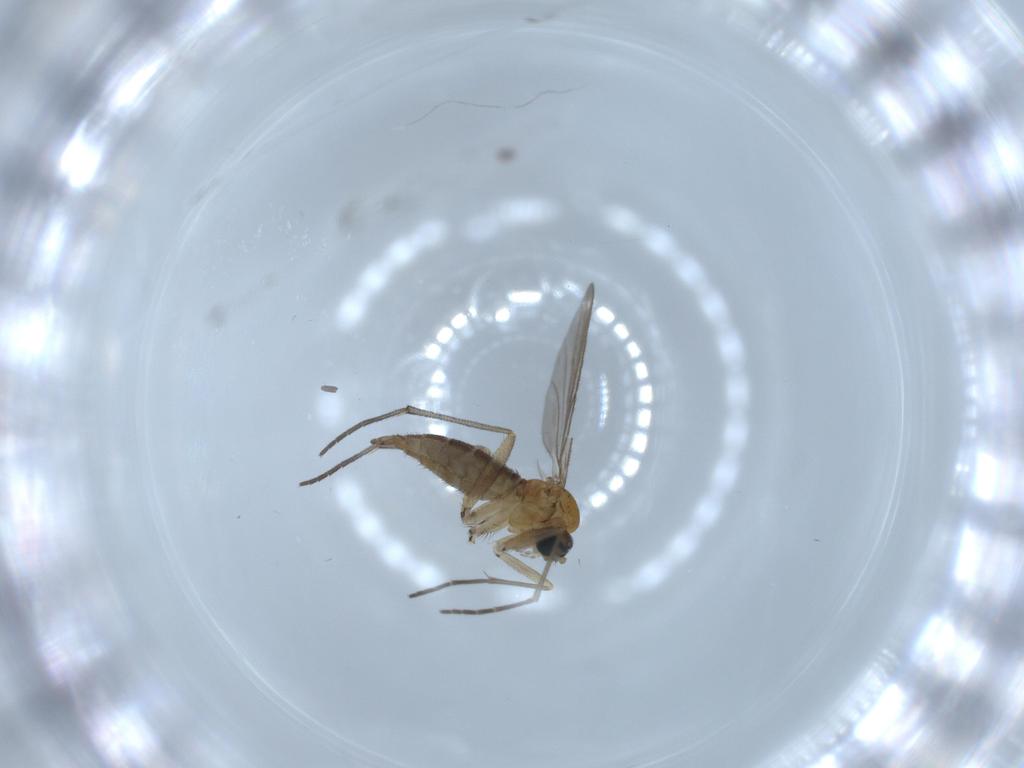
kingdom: Animalia
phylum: Arthropoda
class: Insecta
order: Diptera
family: Sciaridae
